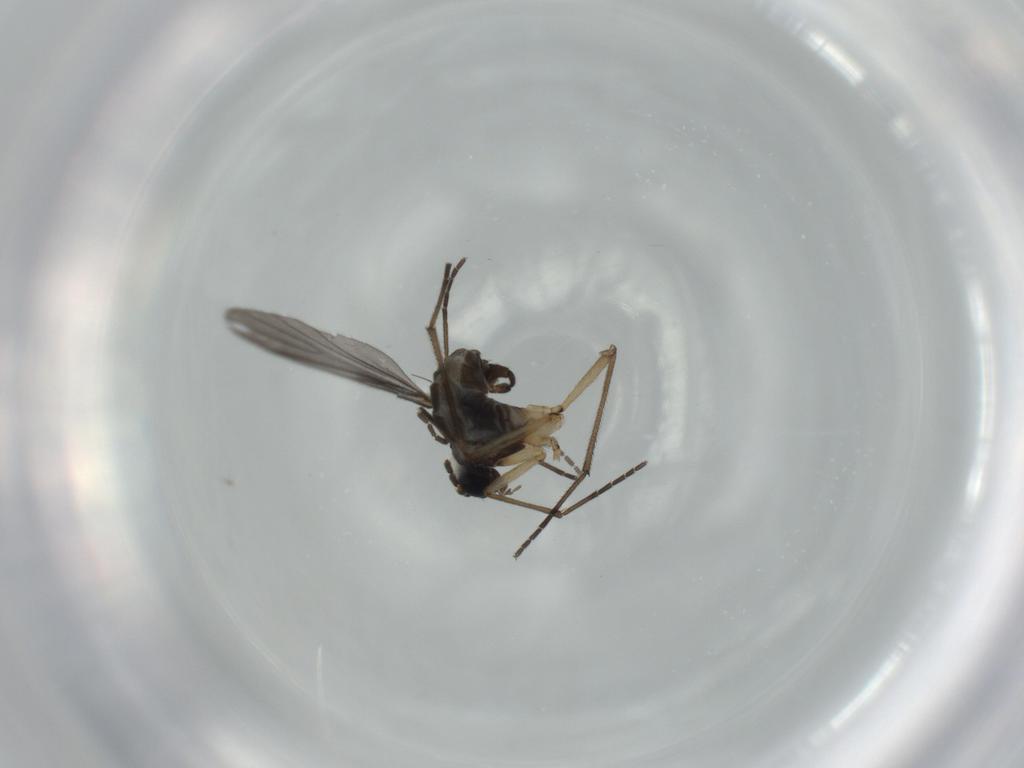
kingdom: Animalia
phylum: Arthropoda
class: Insecta
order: Diptera
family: Sciaridae
